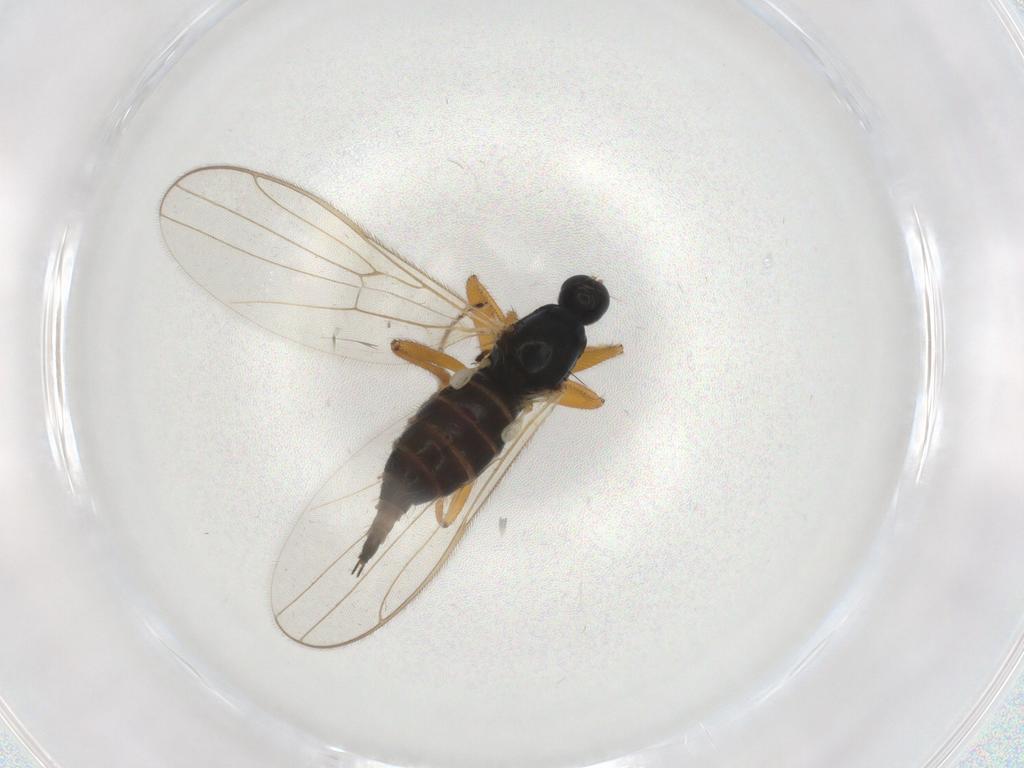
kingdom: Animalia
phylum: Arthropoda
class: Insecta
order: Diptera
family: Hybotidae
